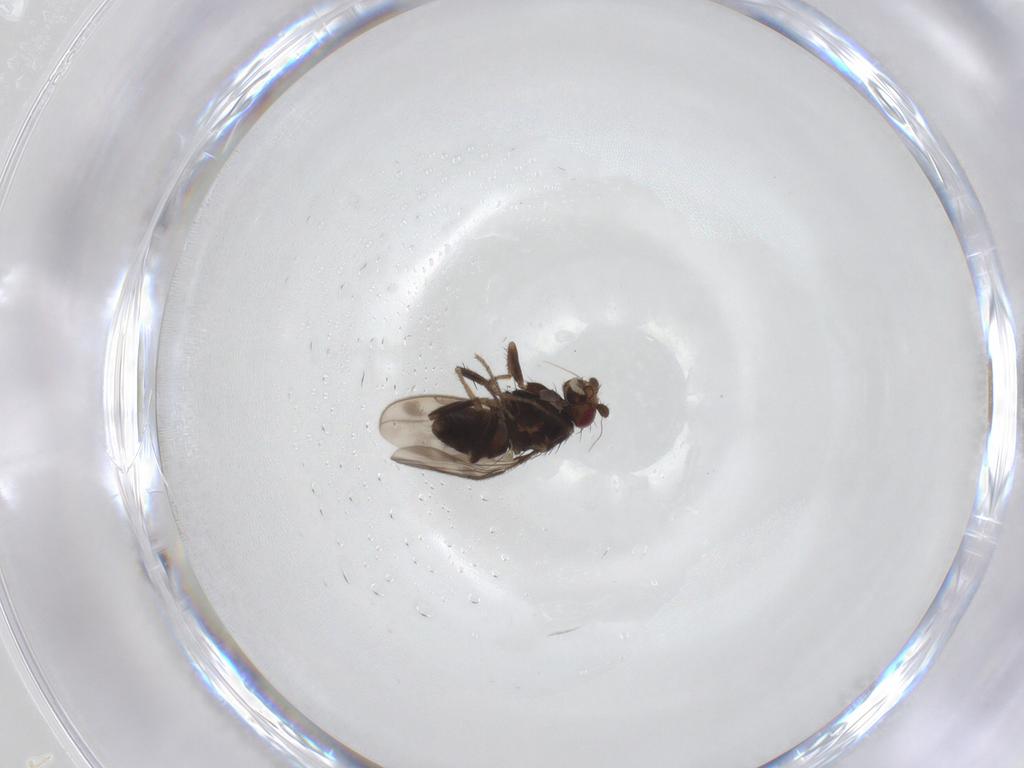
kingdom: Animalia
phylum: Arthropoda
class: Insecta
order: Diptera
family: Sphaeroceridae
